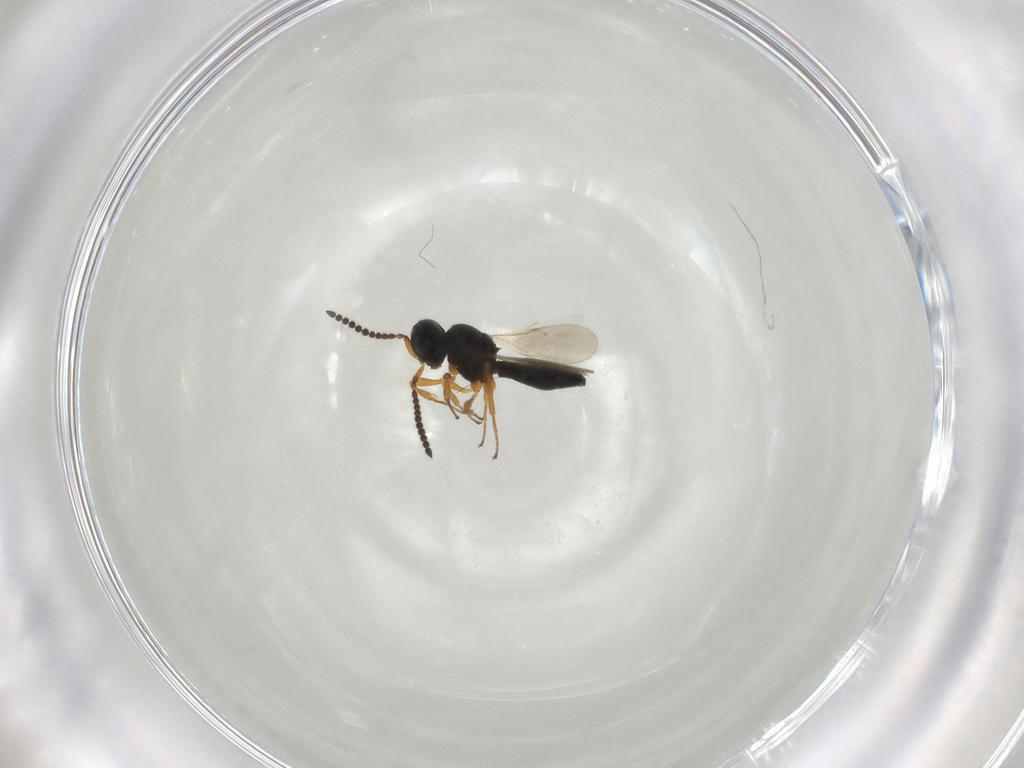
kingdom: Animalia
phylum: Arthropoda
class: Insecta
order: Hymenoptera
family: Scelionidae
